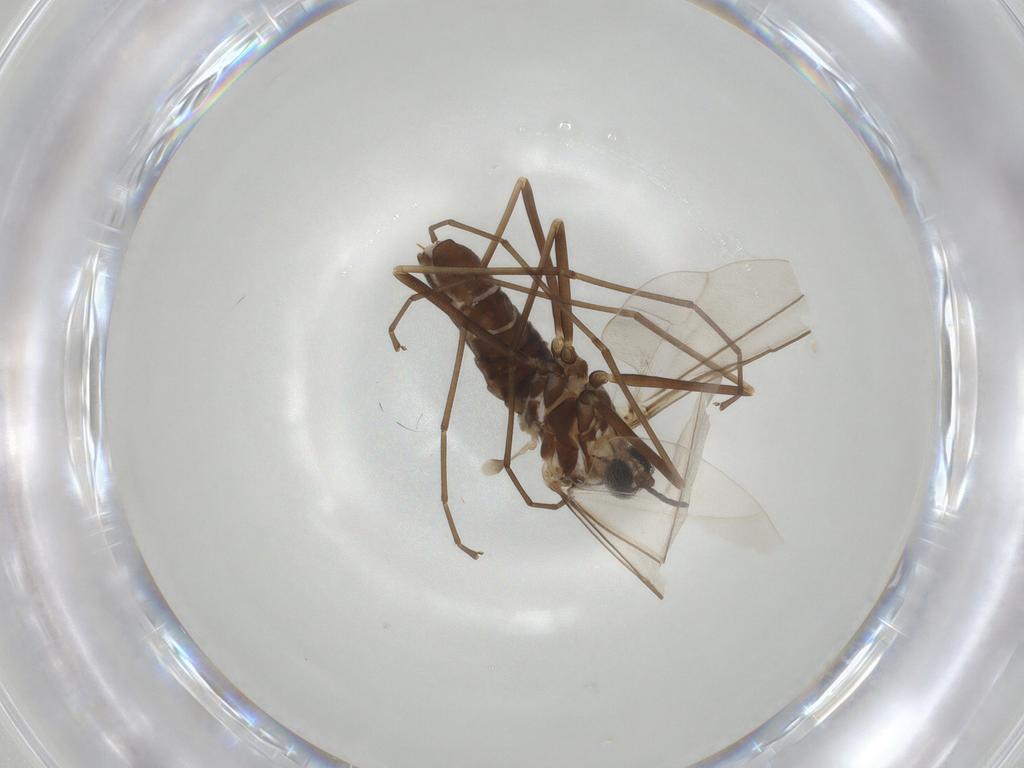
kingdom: Animalia
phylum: Arthropoda
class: Insecta
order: Diptera
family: Cecidomyiidae
